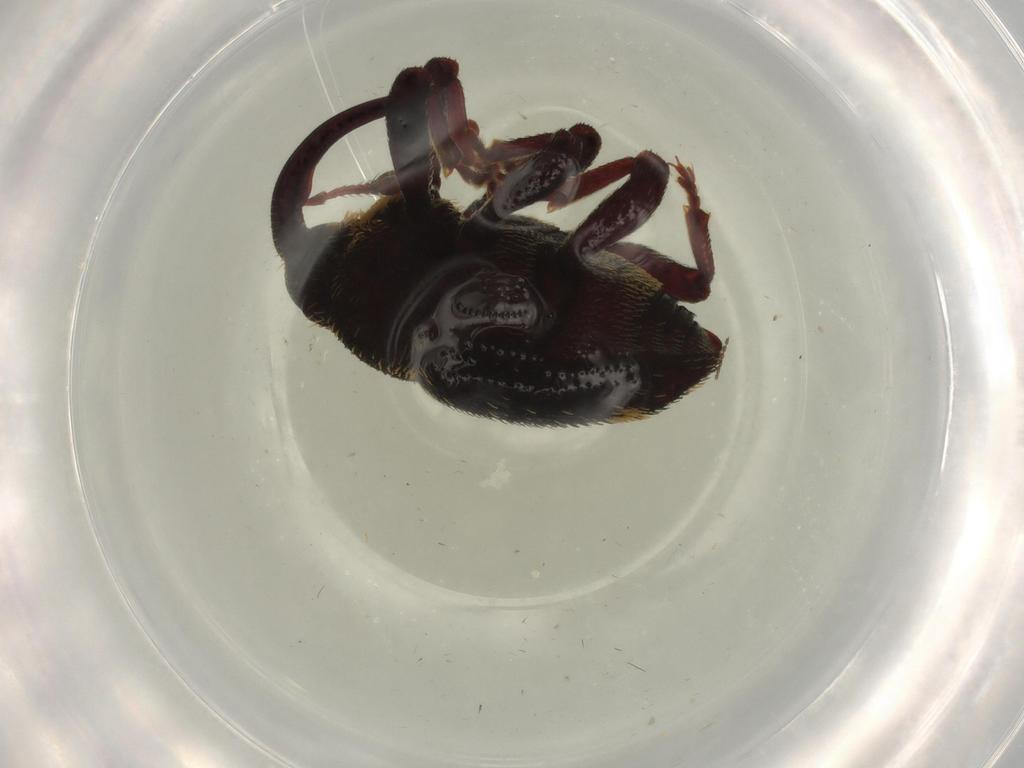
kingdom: Animalia
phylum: Arthropoda
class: Insecta
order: Coleoptera
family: Curculionidae
